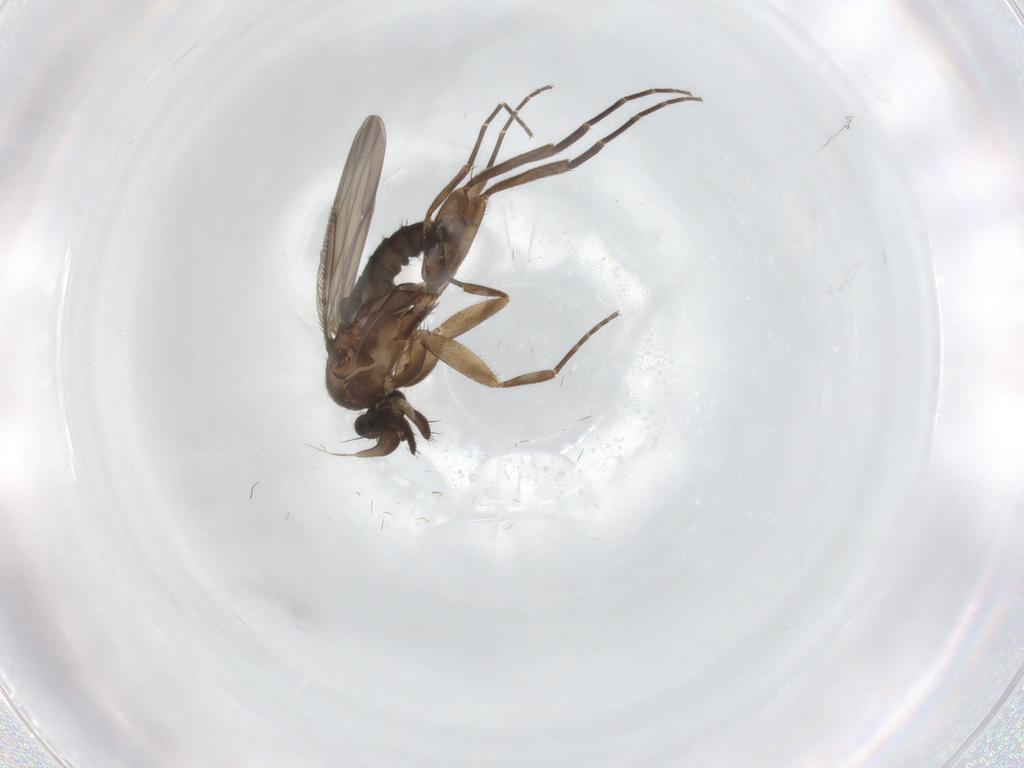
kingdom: Animalia
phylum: Arthropoda
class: Insecta
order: Diptera
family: Phoridae
